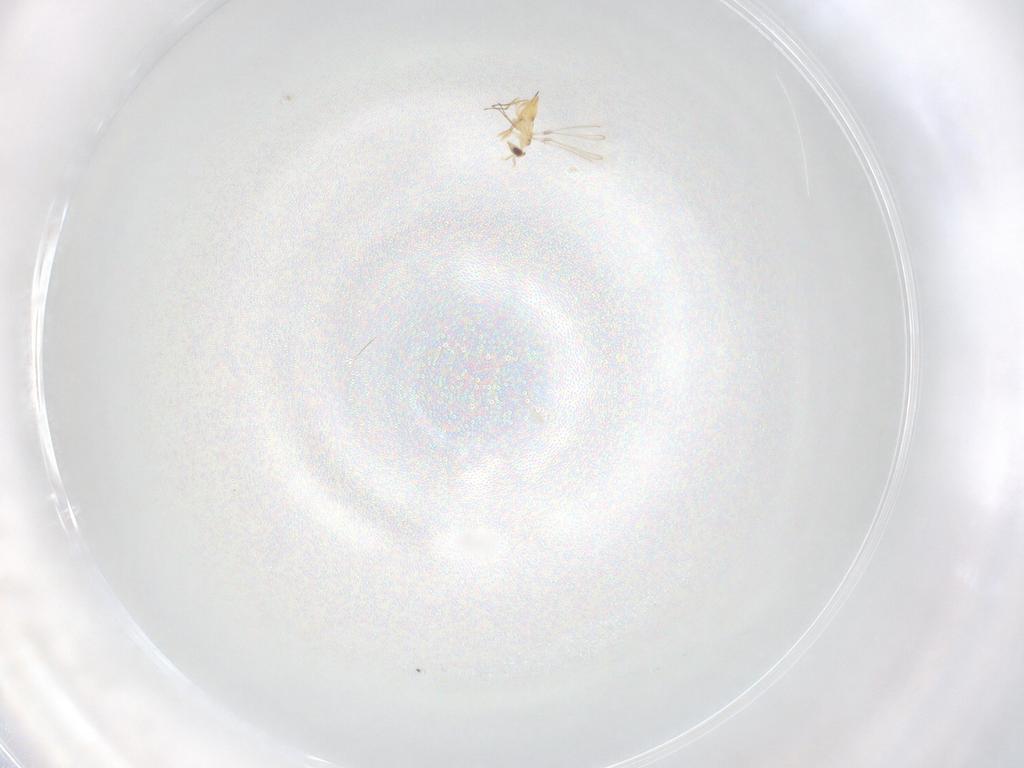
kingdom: Animalia
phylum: Arthropoda
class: Insecta
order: Hymenoptera
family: Mymaridae
